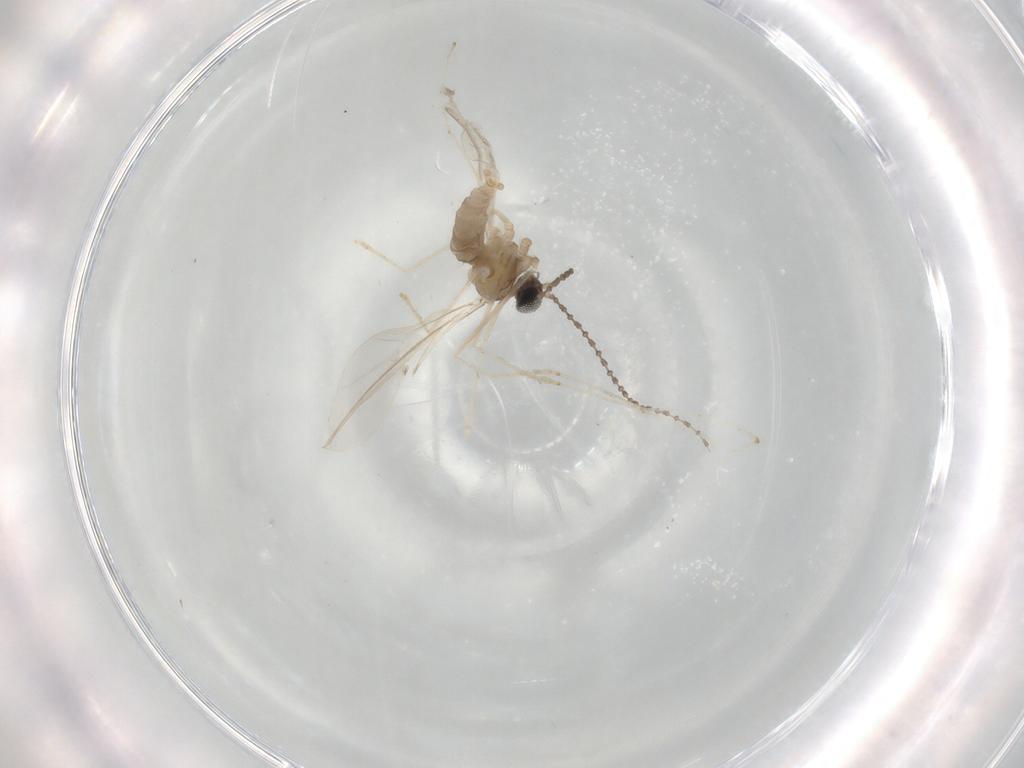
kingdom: Animalia
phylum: Arthropoda
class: Insecta
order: Diptera
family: Cecidomyiidae
